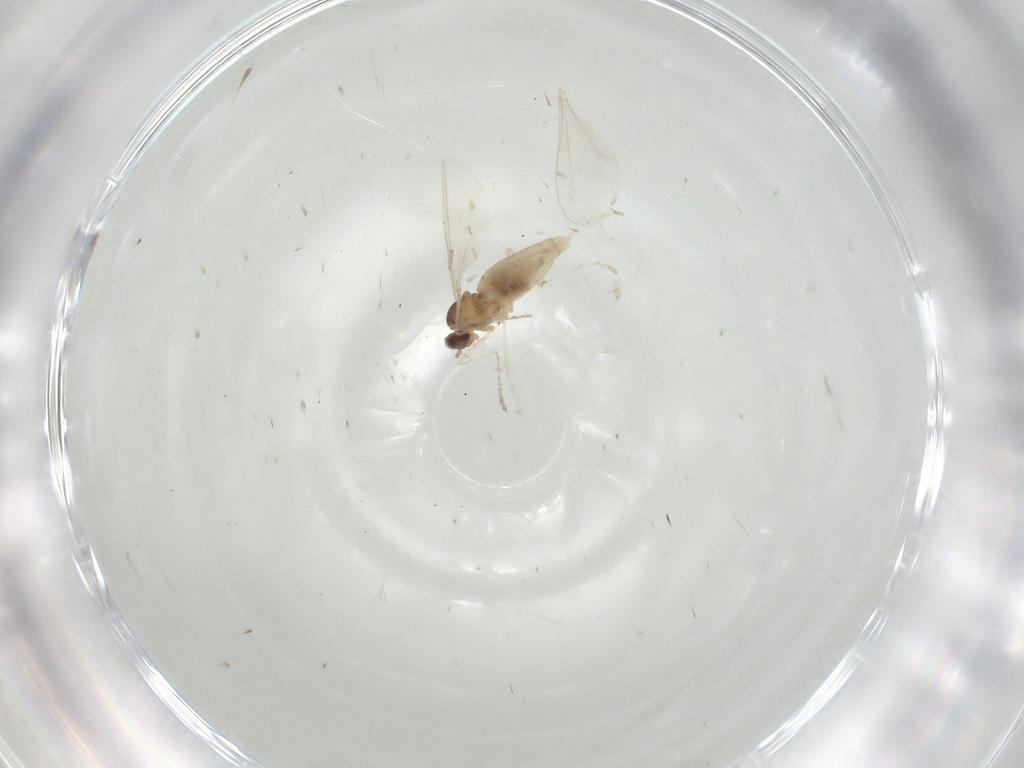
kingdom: Animalia
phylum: Arthropoda
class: Insecta
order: Diptera
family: Cecidomyiidae
